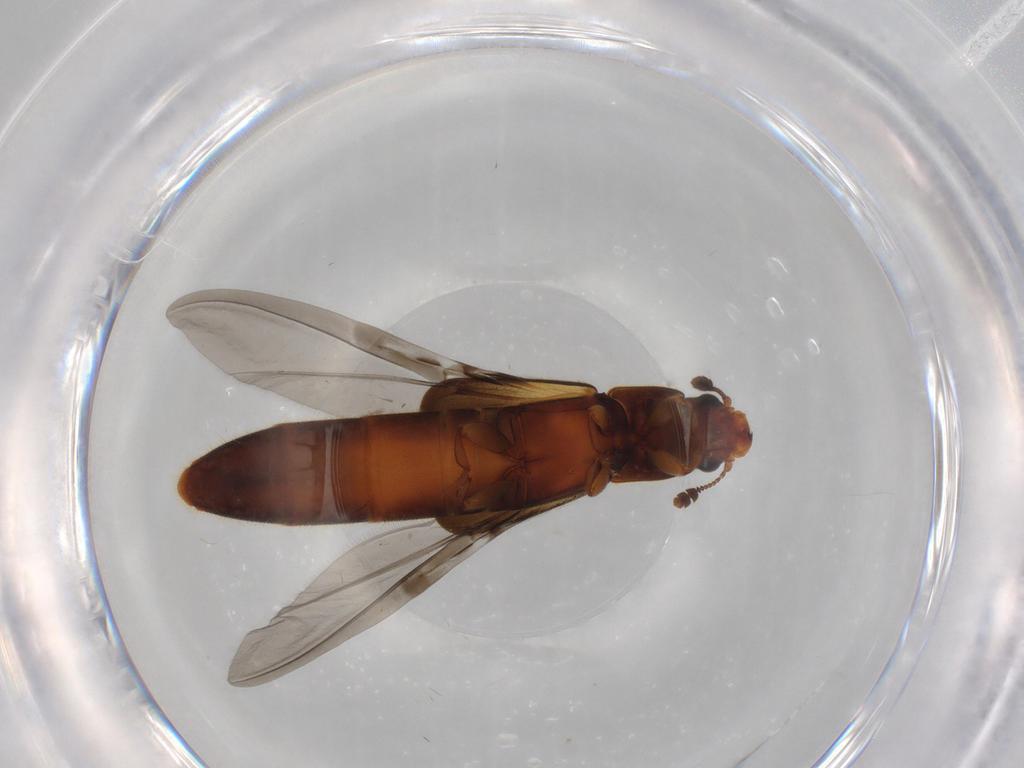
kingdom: Animalia
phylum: Arthropoda
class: Insecta
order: Coleoptera
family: Nitidulidae
